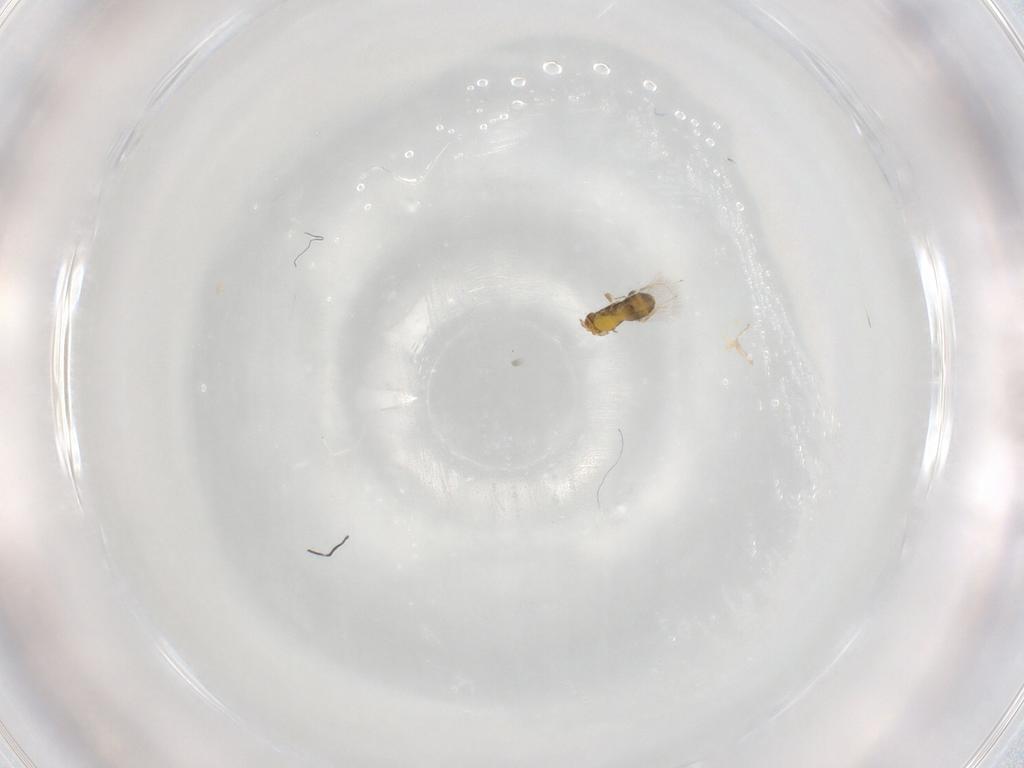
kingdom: Animalia
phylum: Arthropoda
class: Insecta
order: Hymenoptera
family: Trichogrammatidae
